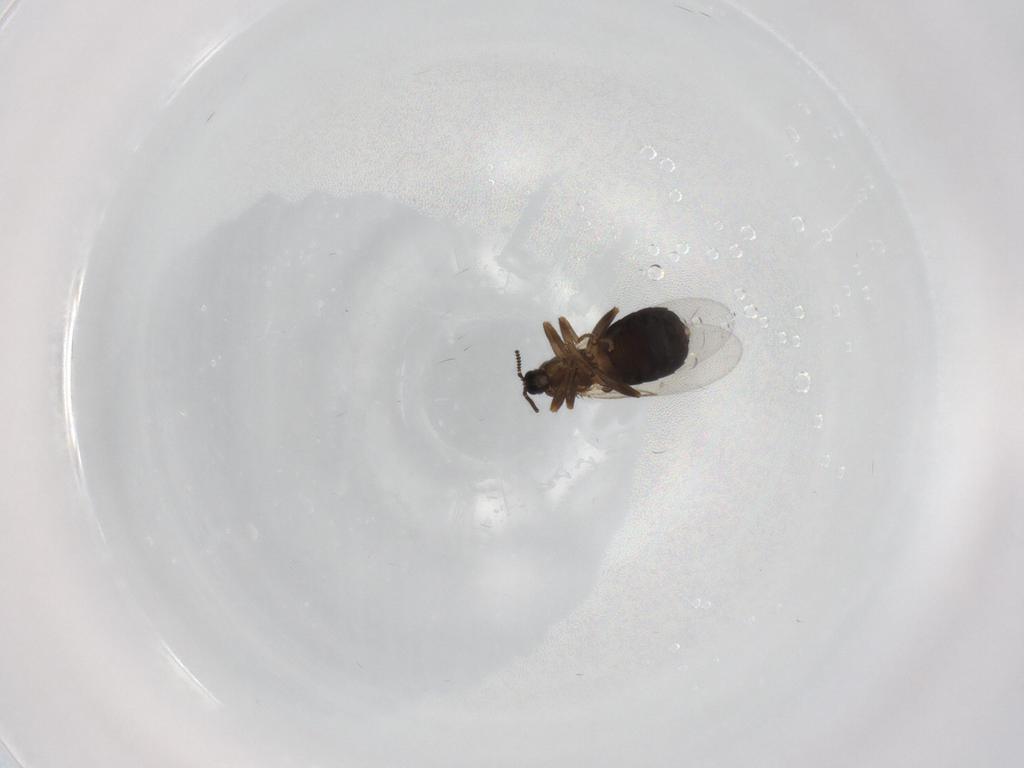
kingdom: Animalia
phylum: Arthropoda
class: Insecta
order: Diptera
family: Scatopsidae
